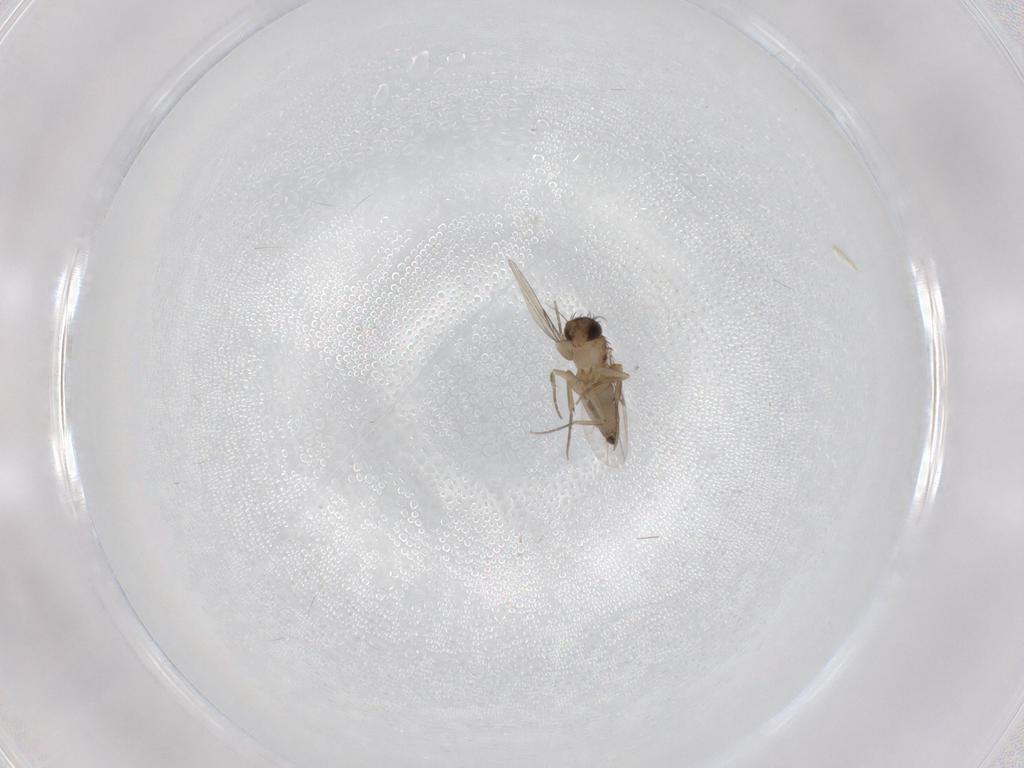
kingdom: Animalia
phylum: Arthropoda
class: Insecta
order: Diptera
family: Phoridae
